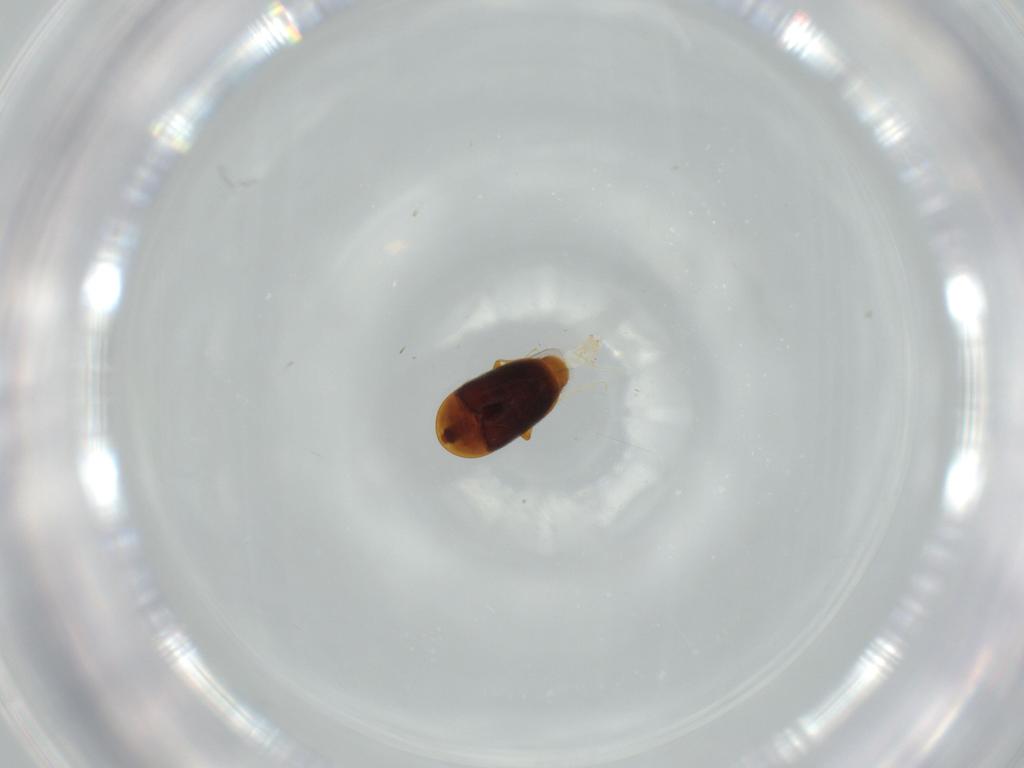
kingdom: Animalia
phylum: Arthropoda
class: Insecta
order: Coleoptera
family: Corylophidae
